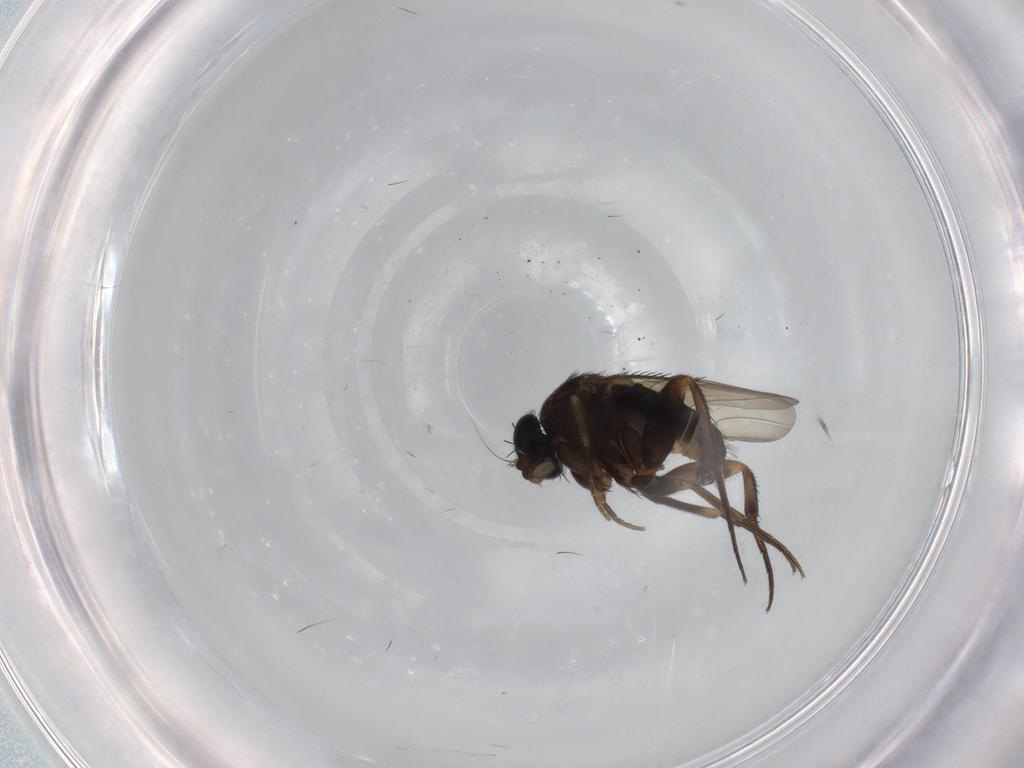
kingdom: Animalia
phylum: Arthropoda
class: Insecta
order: Diptera
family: Phoridae
